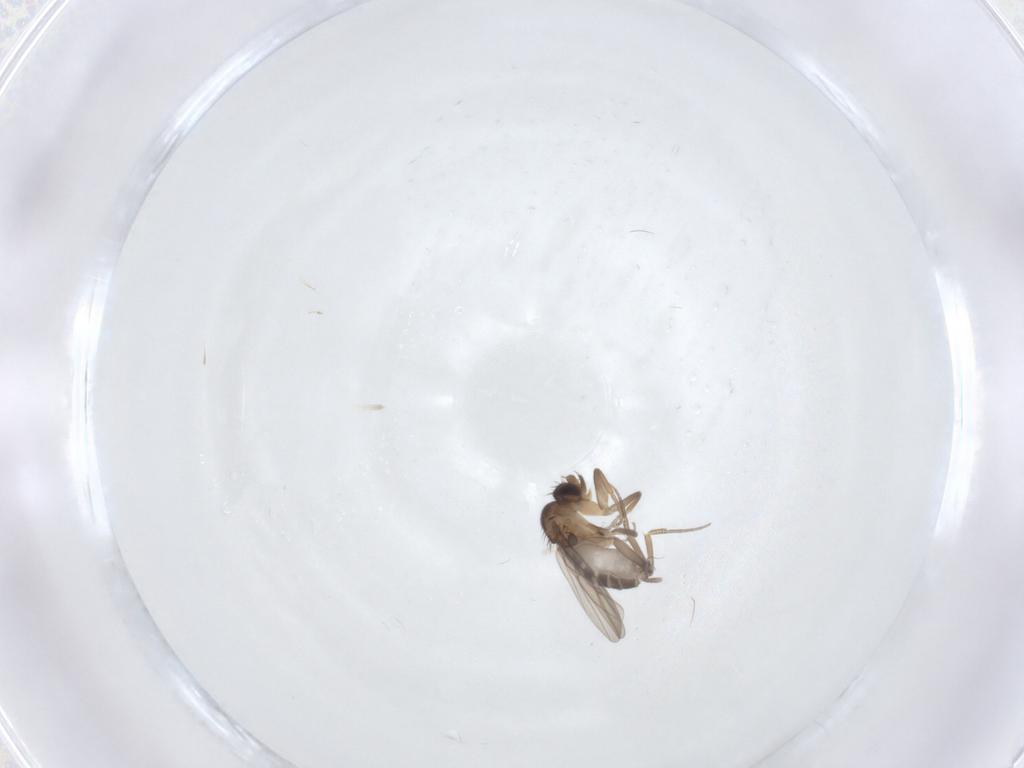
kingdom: Animalia
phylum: Arthropoda
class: Insecta
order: Diptera
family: Phoridae
